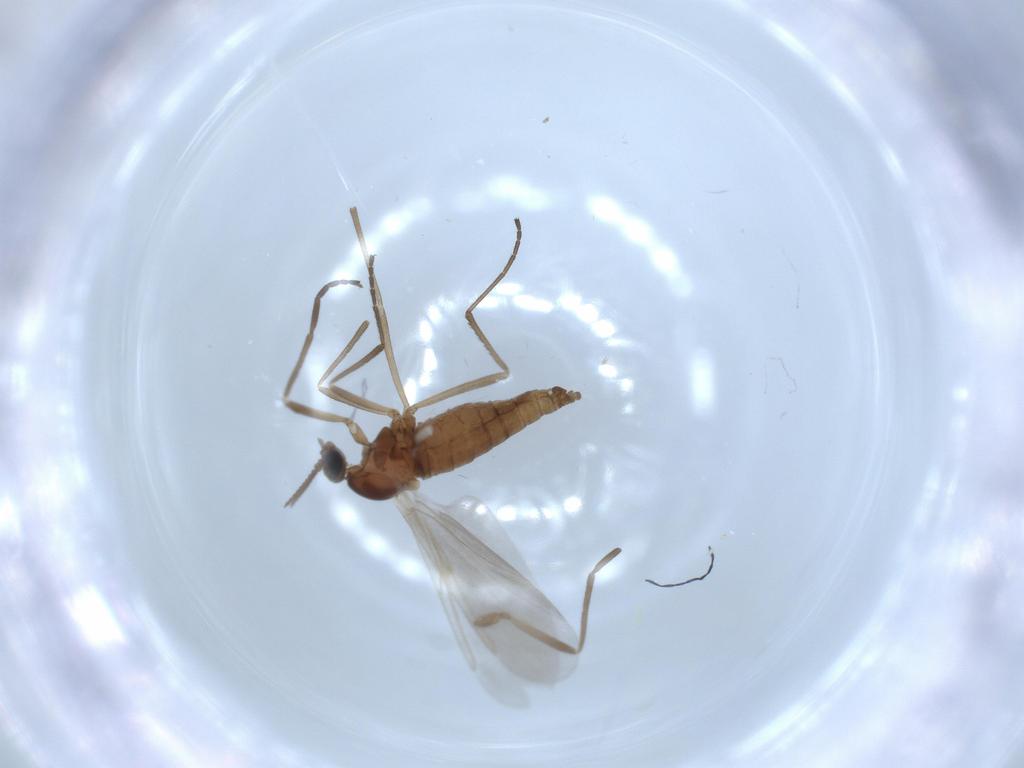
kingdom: Animalia
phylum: Arthropoda
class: Insecta
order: Diptera
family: Cecidomyiidae
